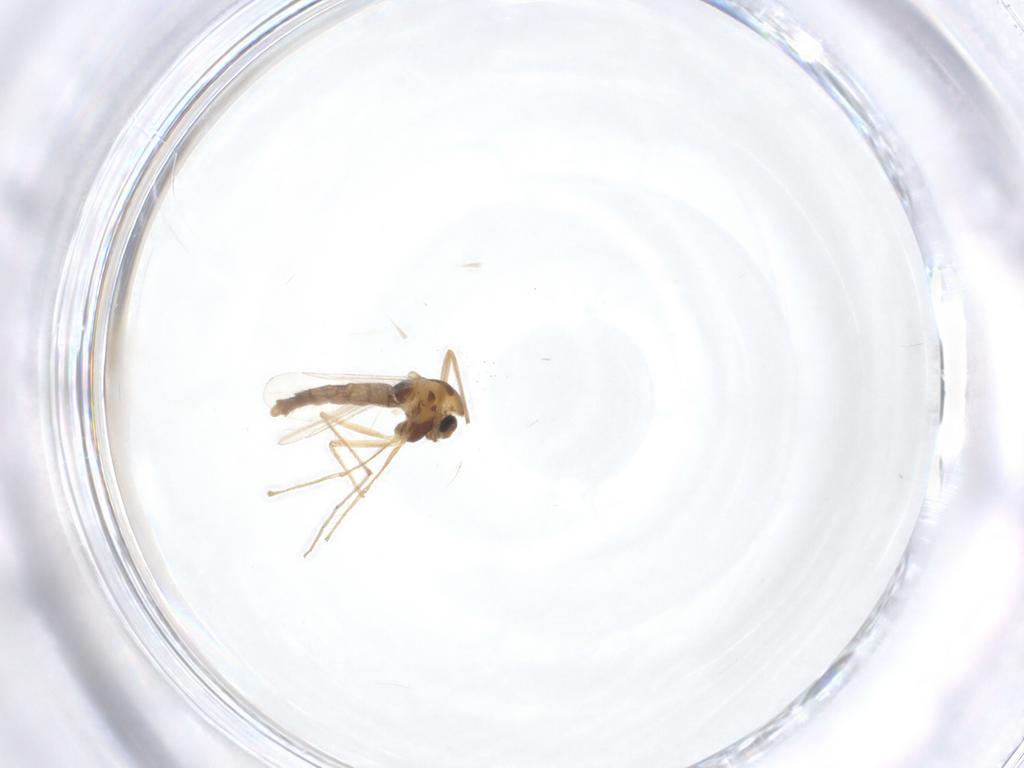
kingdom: Animalia
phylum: Arthropoda
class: Insecta
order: Diptera
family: Chironomidae
